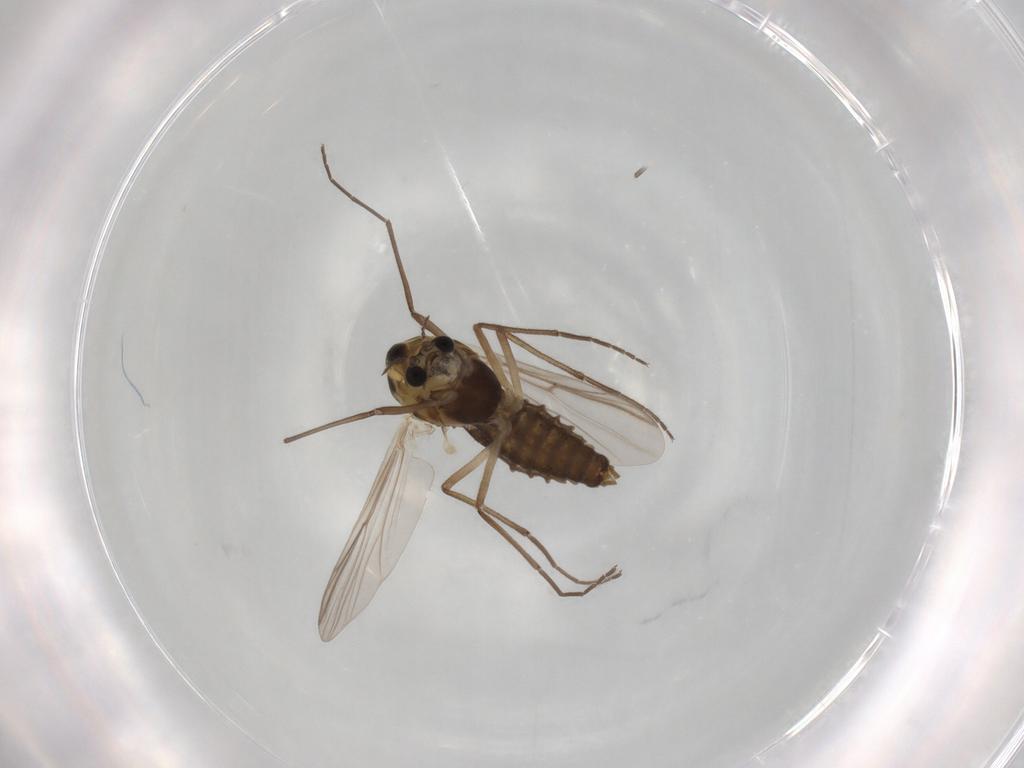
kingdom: Animalia
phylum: Arthropoda
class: Insecta
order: Diptera
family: Chironomidae
